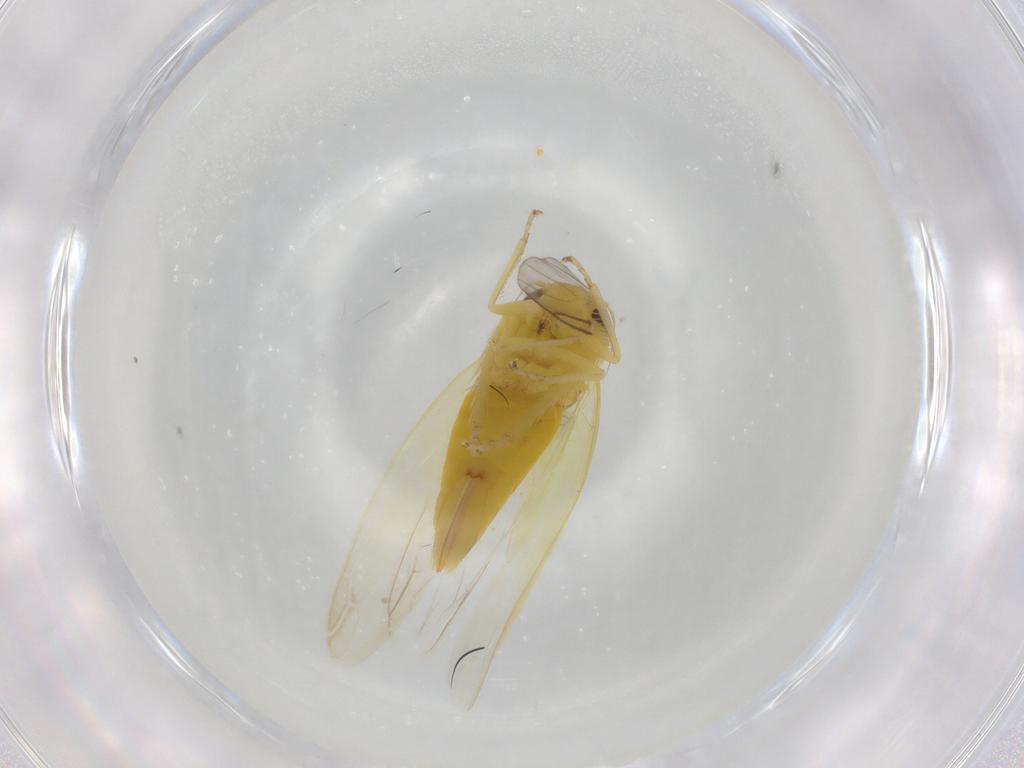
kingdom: Animalia
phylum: Arthropoda
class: Insecta
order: Hemiptera
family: Cicadellidae
